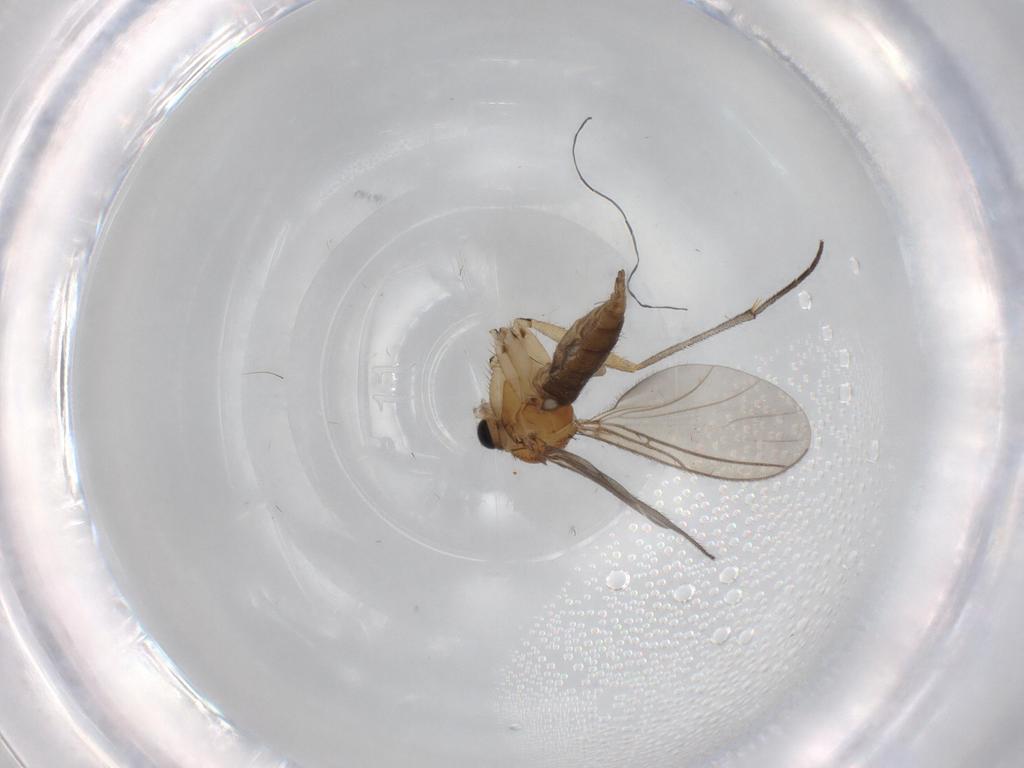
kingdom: Animalia
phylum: Arthropoda
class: Insecta
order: Diptera
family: Sciaridae
